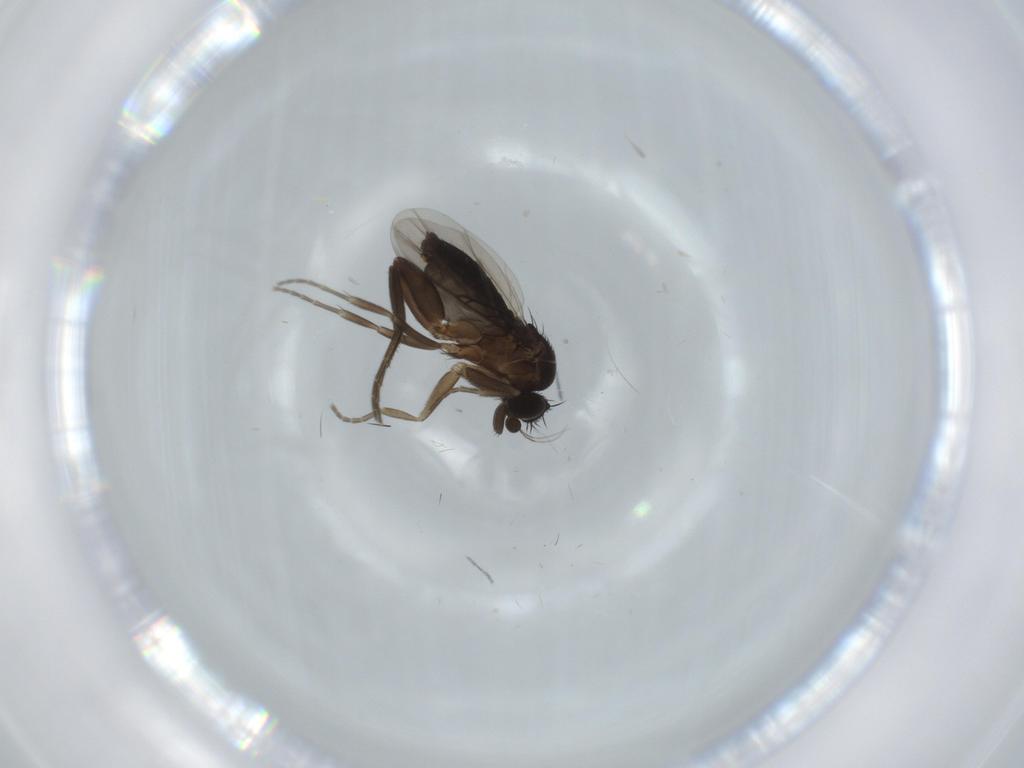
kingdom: Animalia
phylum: Arthropoda
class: Insecta
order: Diptera
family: Phoridae
